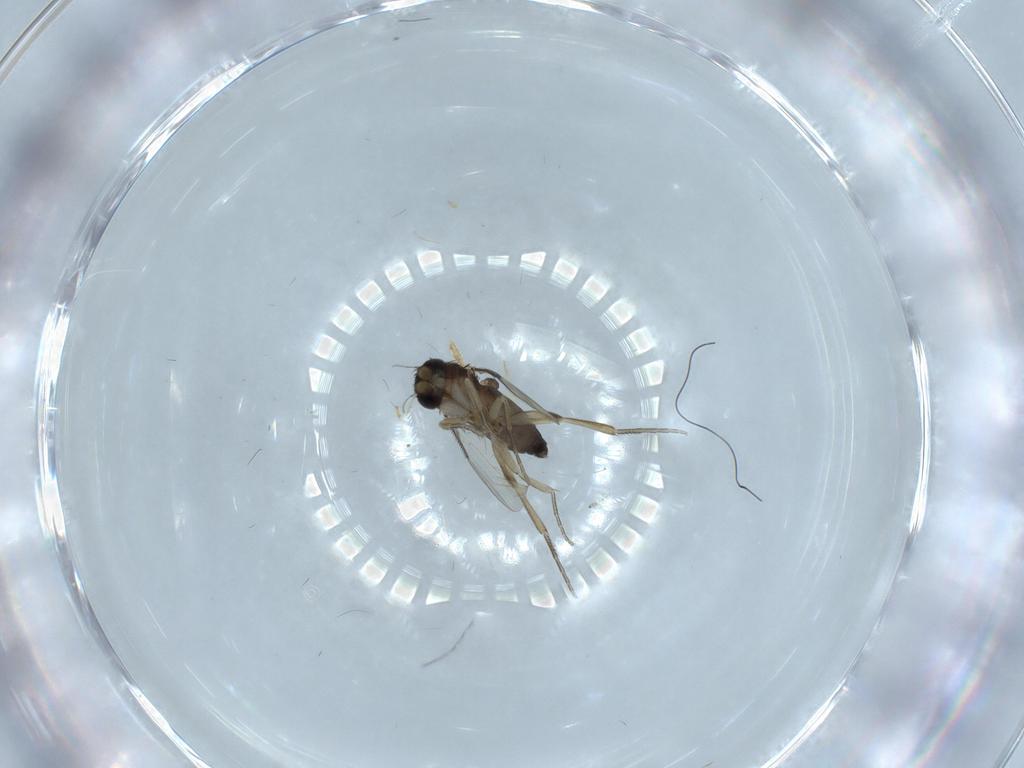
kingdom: Animalia
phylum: Arthropoda
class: Insecta
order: Diptera
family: Phoridae
